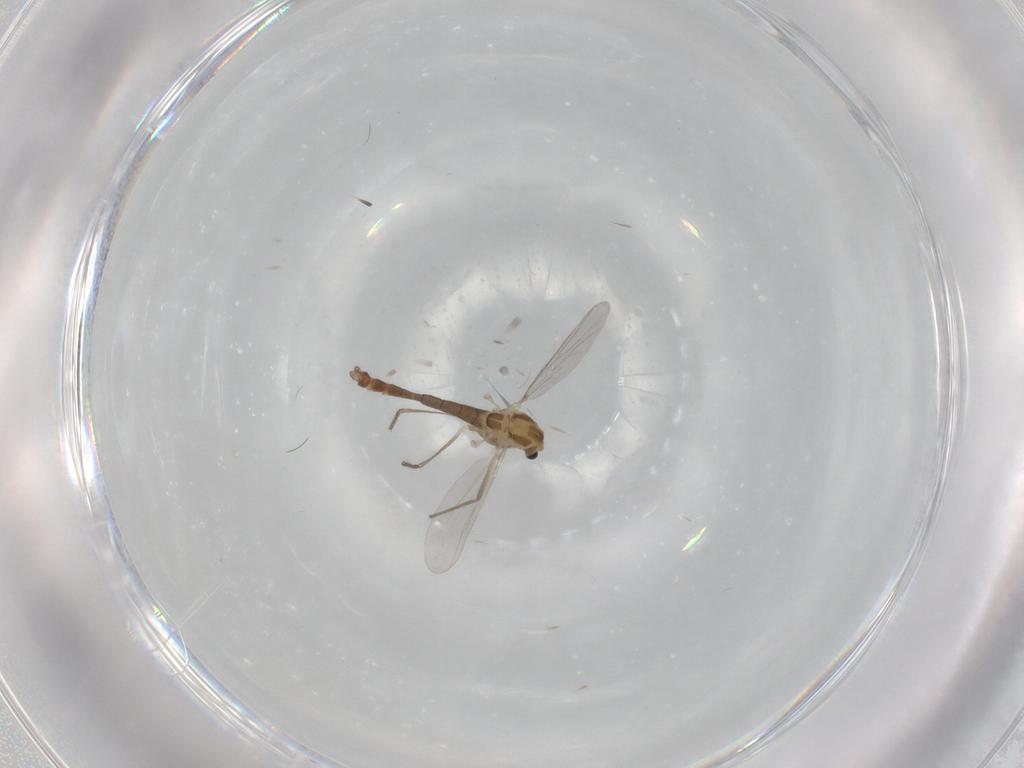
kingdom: Animalia
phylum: Arthropoda
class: Insecta
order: Diptera
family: Chironomidae
